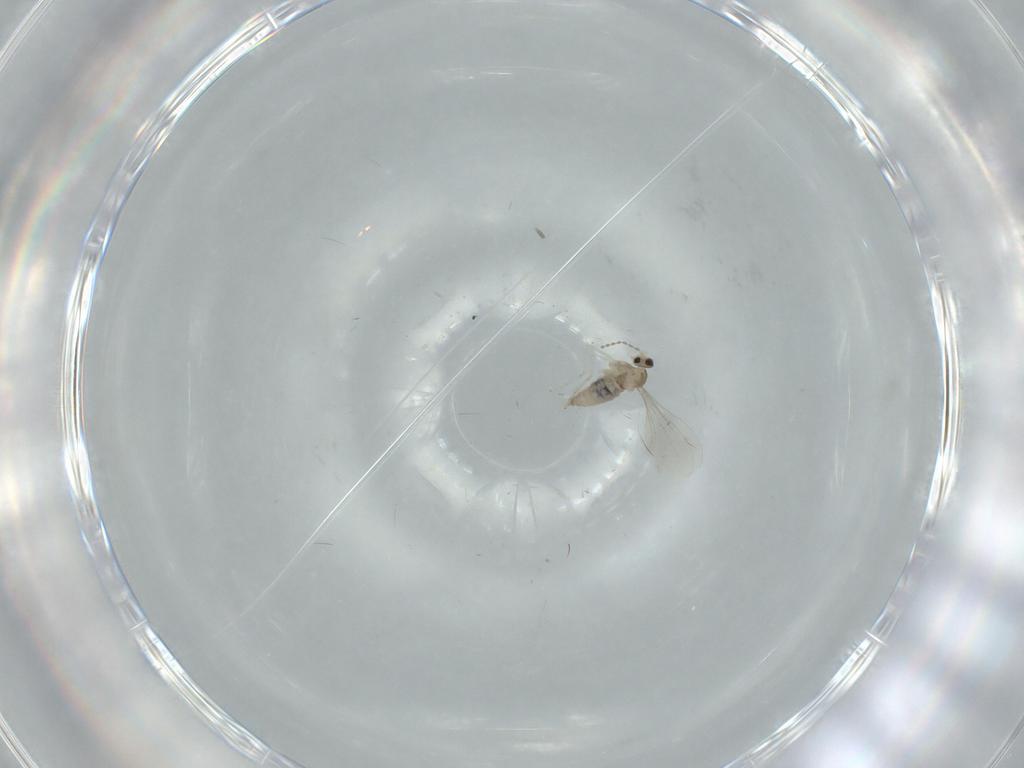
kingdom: Animalia
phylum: Arthropoda
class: Insecta
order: Diptera
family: Cecidomyiidae
